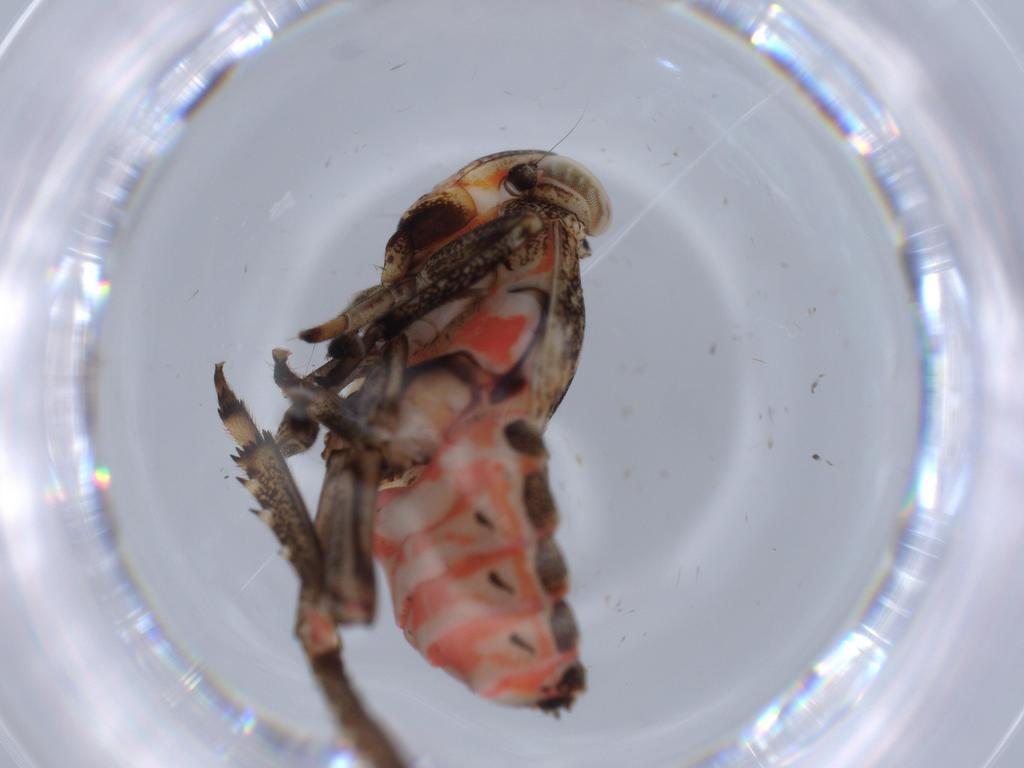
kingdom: Animalia
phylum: Arthropoda
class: Insecta
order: Hemiptera
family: Issidae
